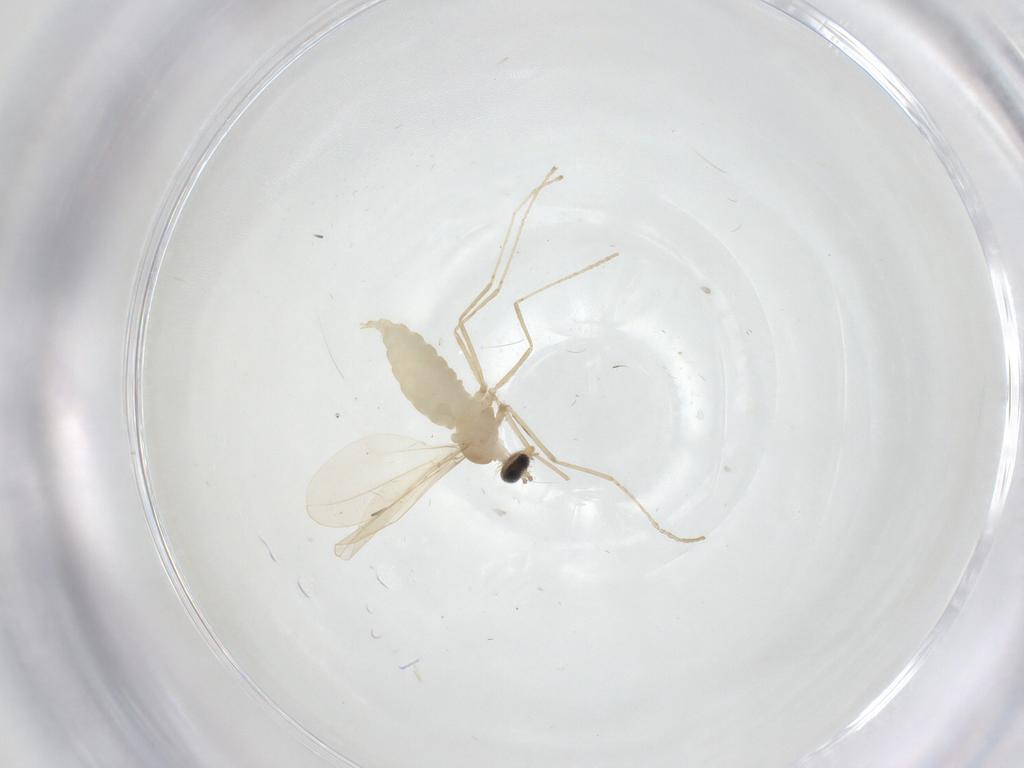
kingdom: Animalia
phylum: Arthropoda
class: Insecta
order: Diptera
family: Cecidomyiidae
